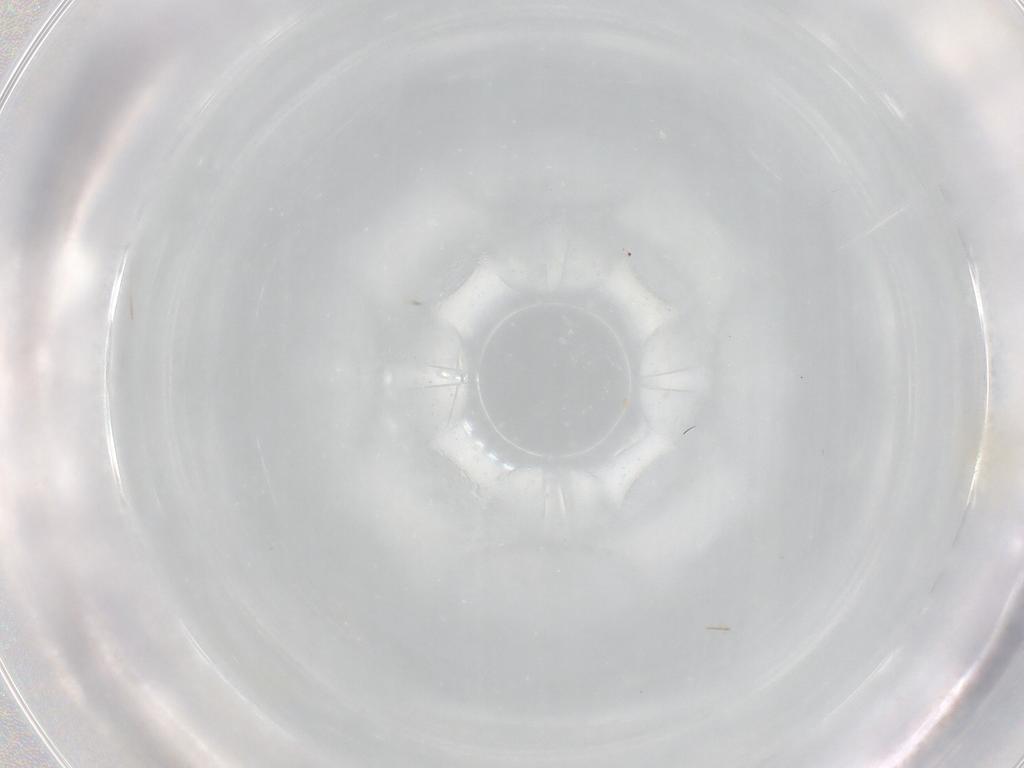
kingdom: Animalia
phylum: Arthropoda
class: Insecta
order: Hemiptera
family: Aleyrodidae
